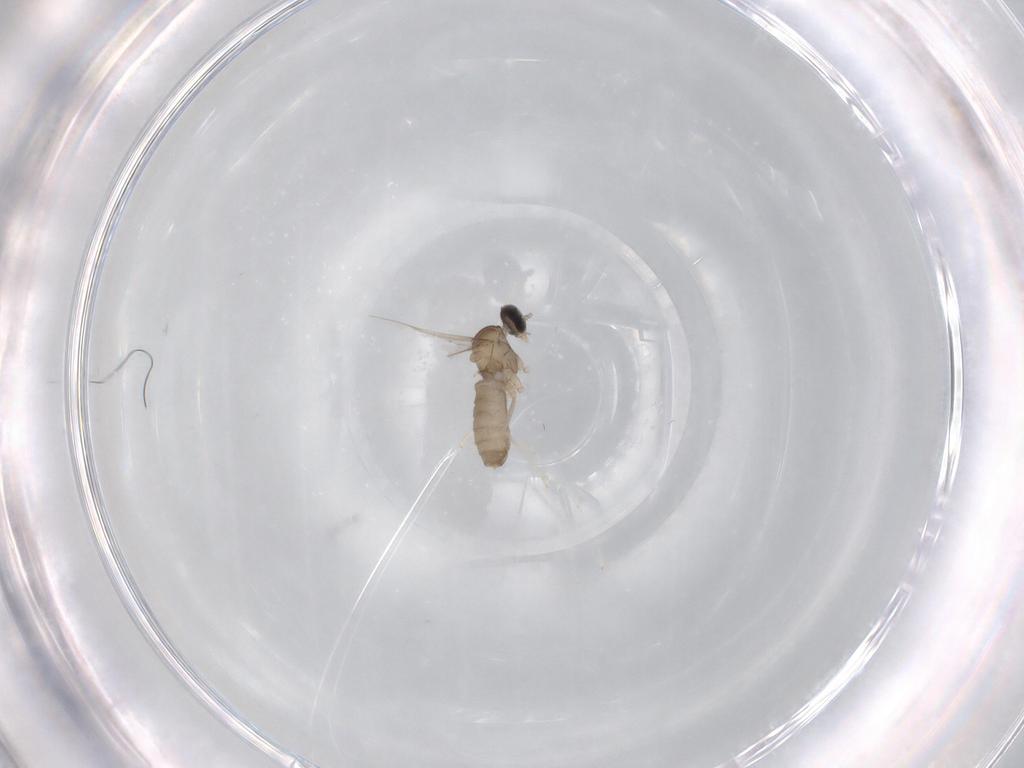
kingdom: Animalia
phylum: Arthropoda
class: Insecta
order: Diptera
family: Cecidomyiidae
